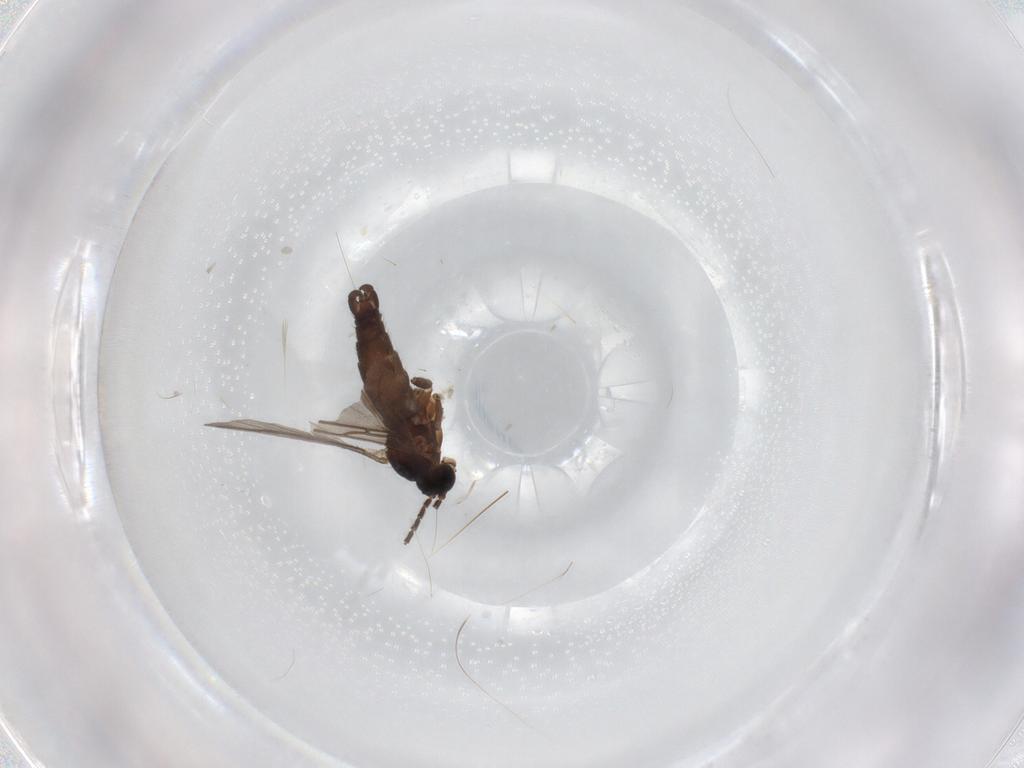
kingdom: Animalia
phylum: Arthropoda
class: Insecta
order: Diptera
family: Sciaridae
